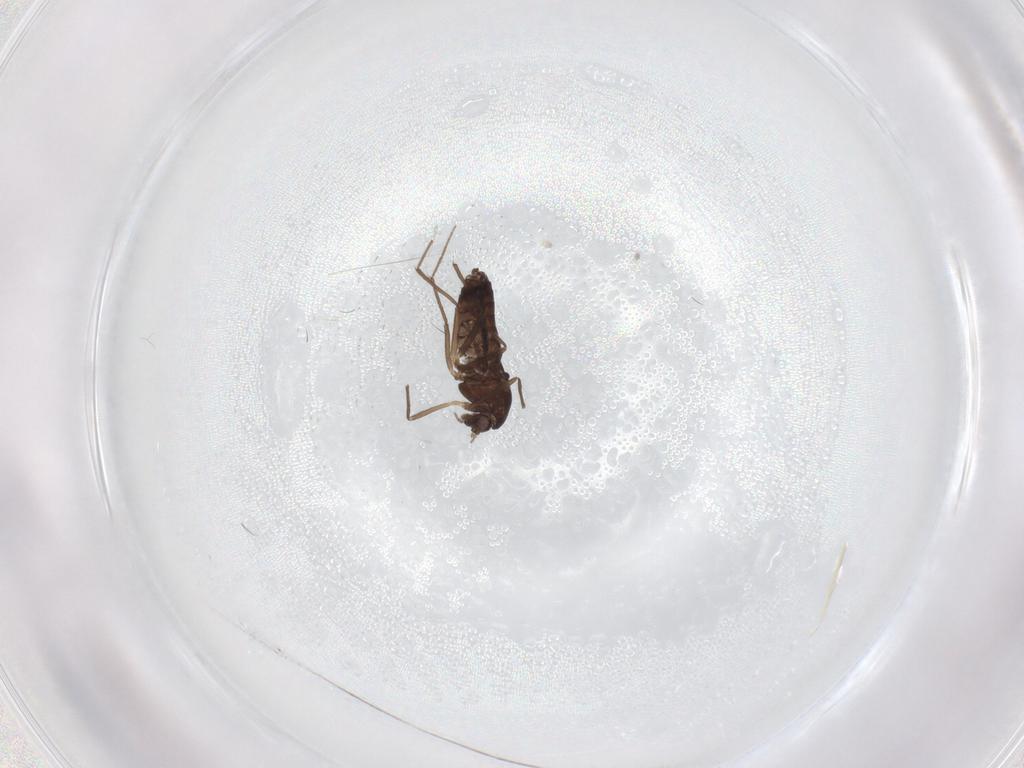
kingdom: Animalia
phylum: Arthropoda
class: Insecta
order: Diptera
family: Chironomidae
